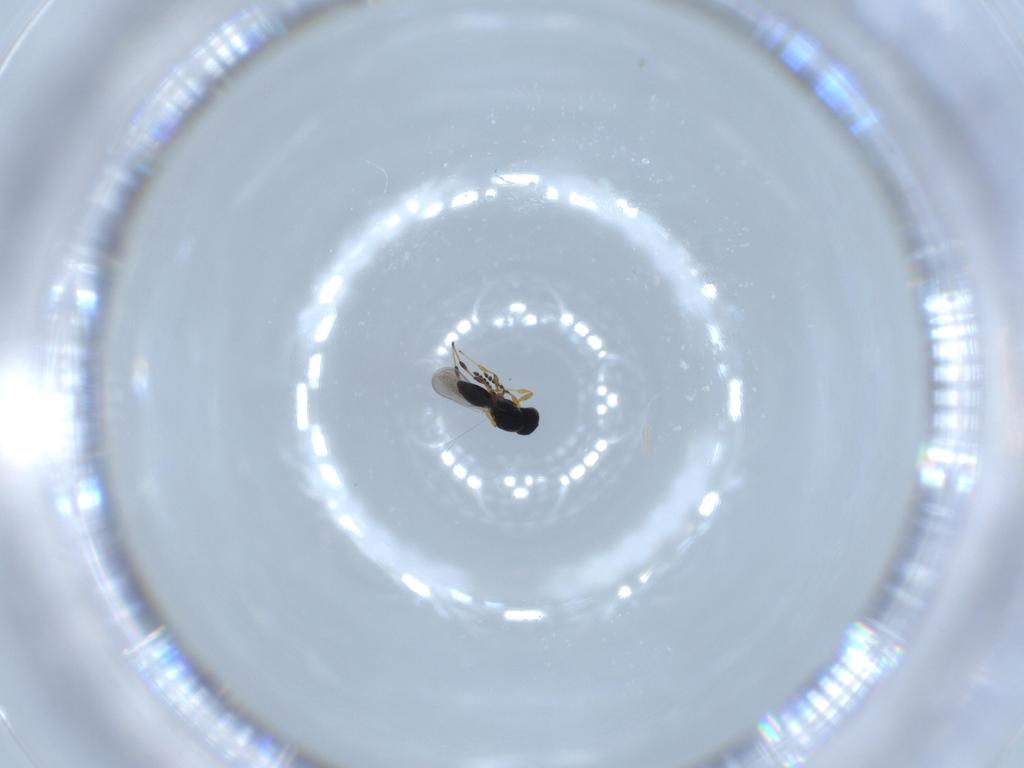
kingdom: Animalia
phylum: Arthropoda
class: Insecta
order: Hymenoptera
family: Platygastridae
